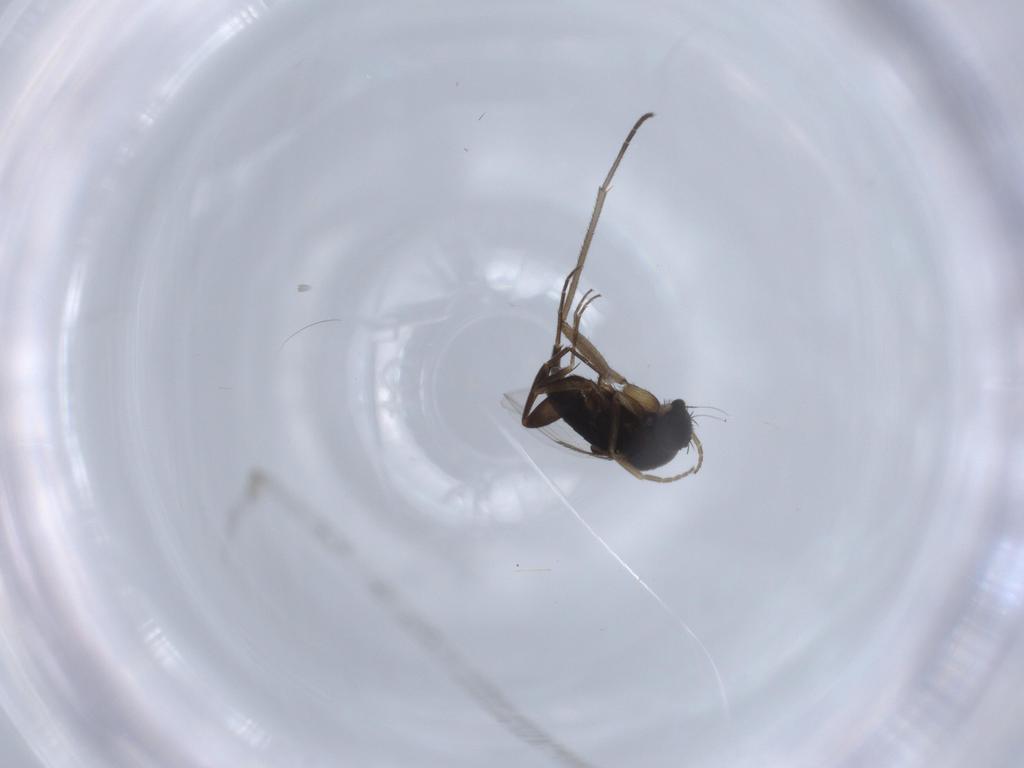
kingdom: Animalia
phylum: Arthropoda
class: Insecta
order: Diptera
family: Phoridae
